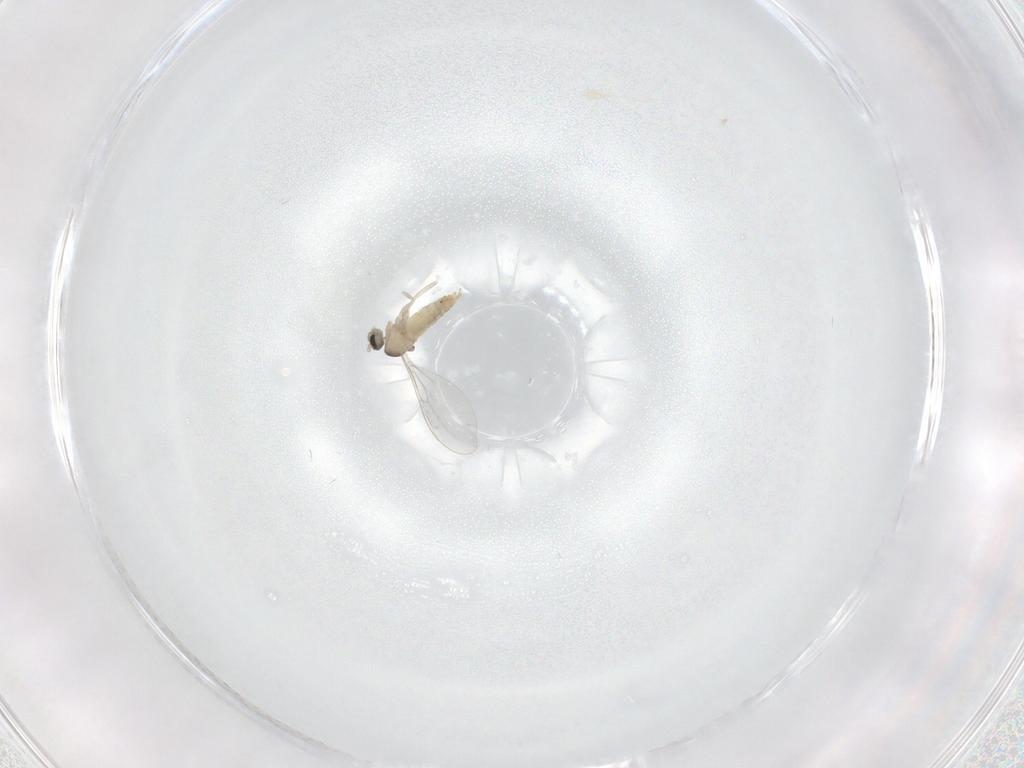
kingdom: Animalia
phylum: Arthropoda
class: Insecta
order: Diptera
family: Cecidomyiidae
